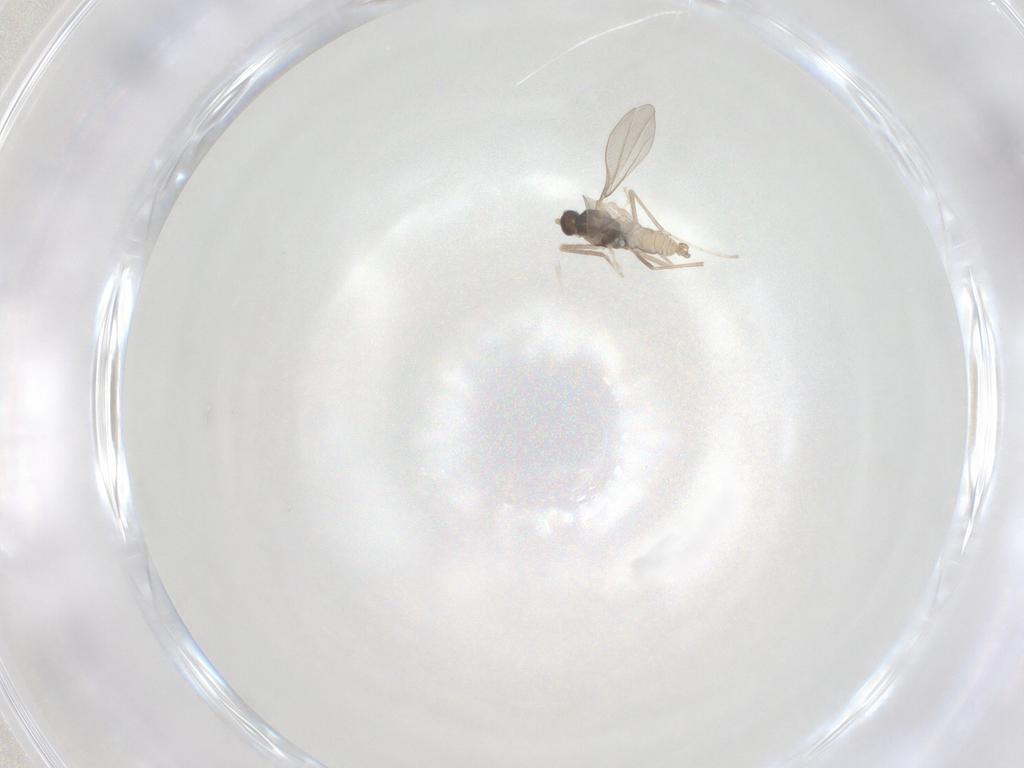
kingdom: Animalia
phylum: Arthropoda
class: Insecta
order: Diptera
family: Cecidomyiidae
